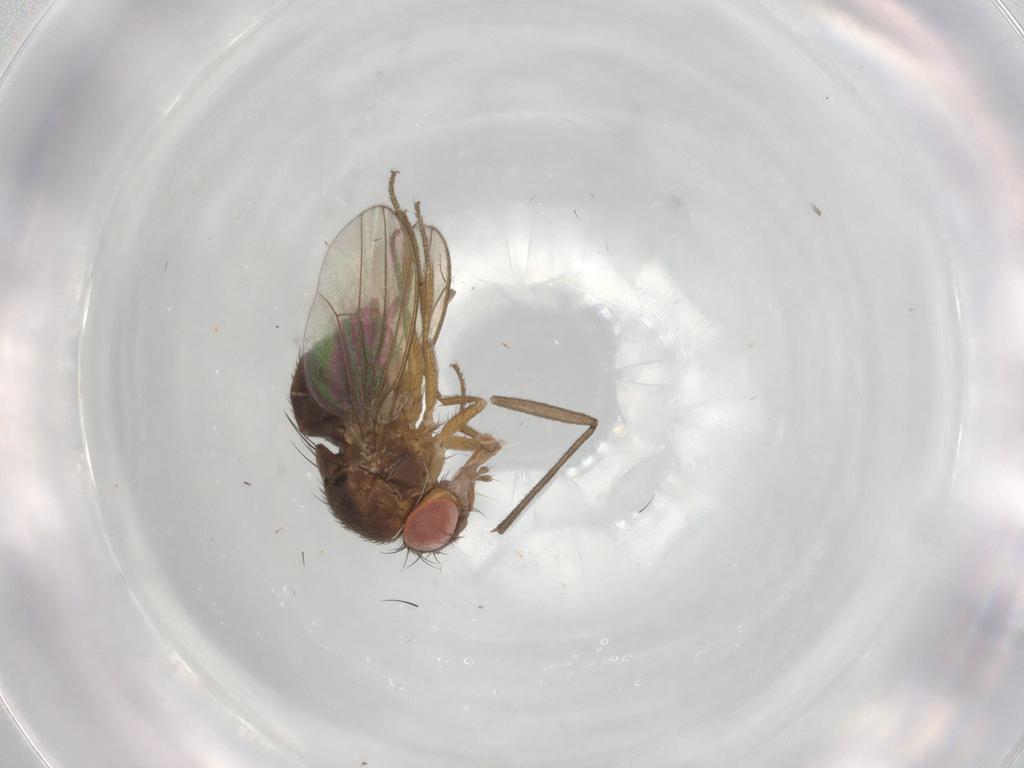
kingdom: Animalia
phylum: Arthropoda
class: Insecta
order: Diptera
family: Drosophilidae
